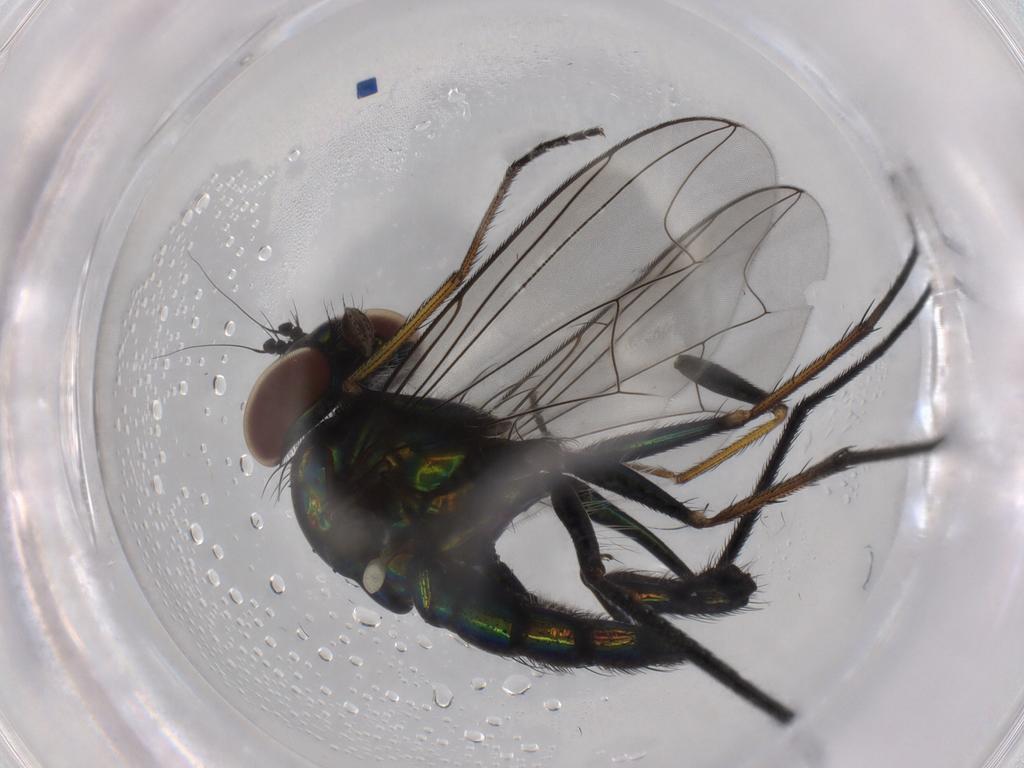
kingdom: Animalia
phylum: Arthropoda
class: Insecta
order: Diptera
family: Dolichopodidae
